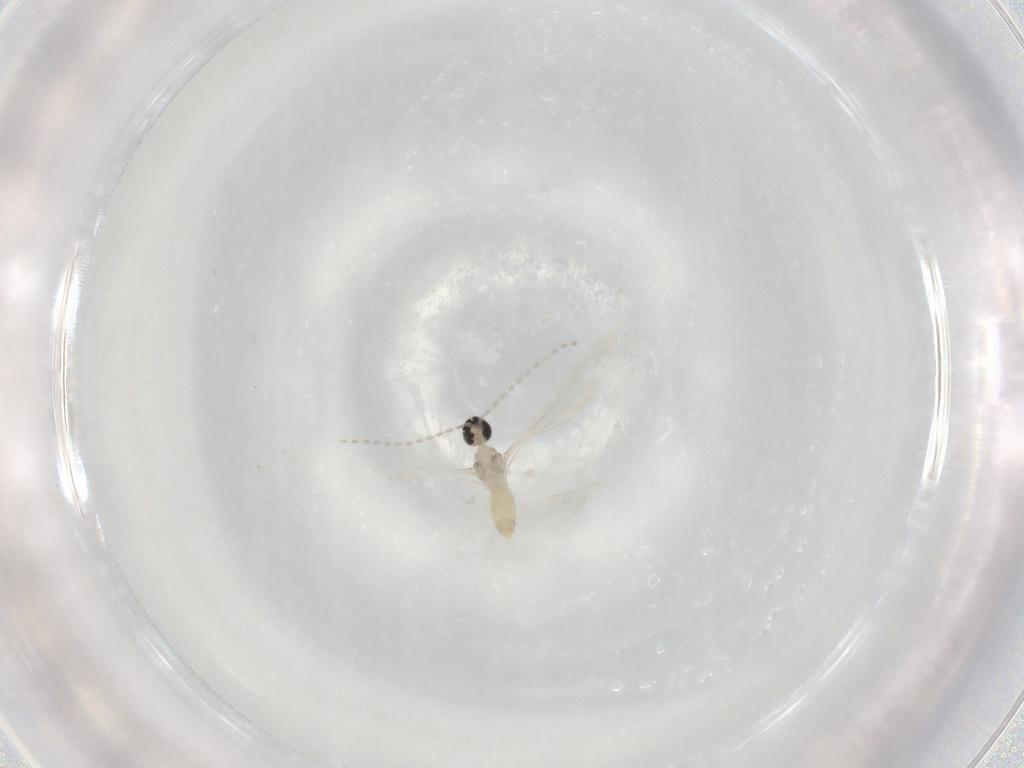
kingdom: Animalia
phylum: Arthropoda
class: Insecta
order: Diptera
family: Cecidomyiidae
